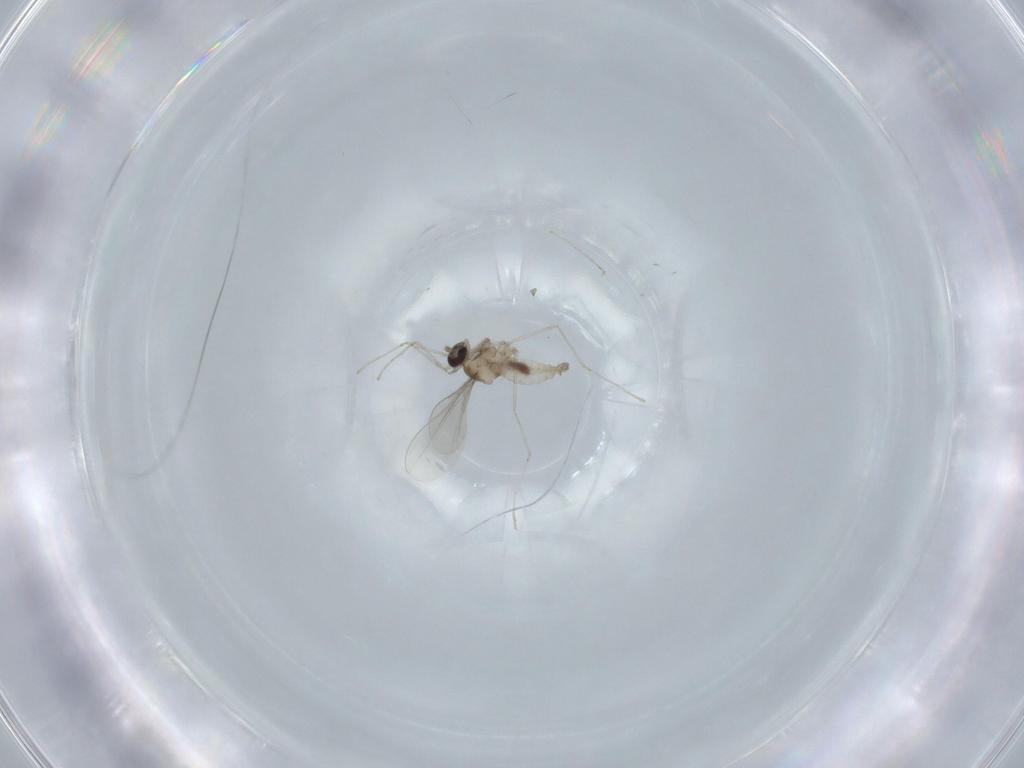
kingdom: Animalia
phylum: Arthropoda
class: Insecta
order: Diptera
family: Cecidomyiidae
